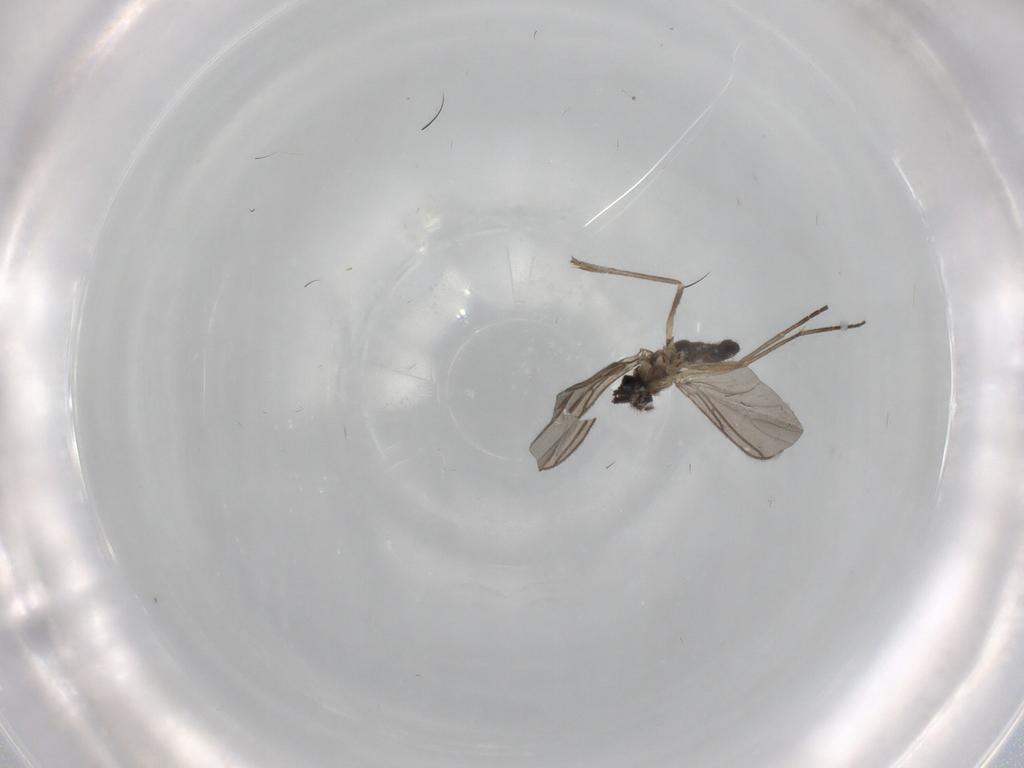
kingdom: Animalia
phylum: Arthropoda
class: Insecta
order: Diptera
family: Sciaridae
